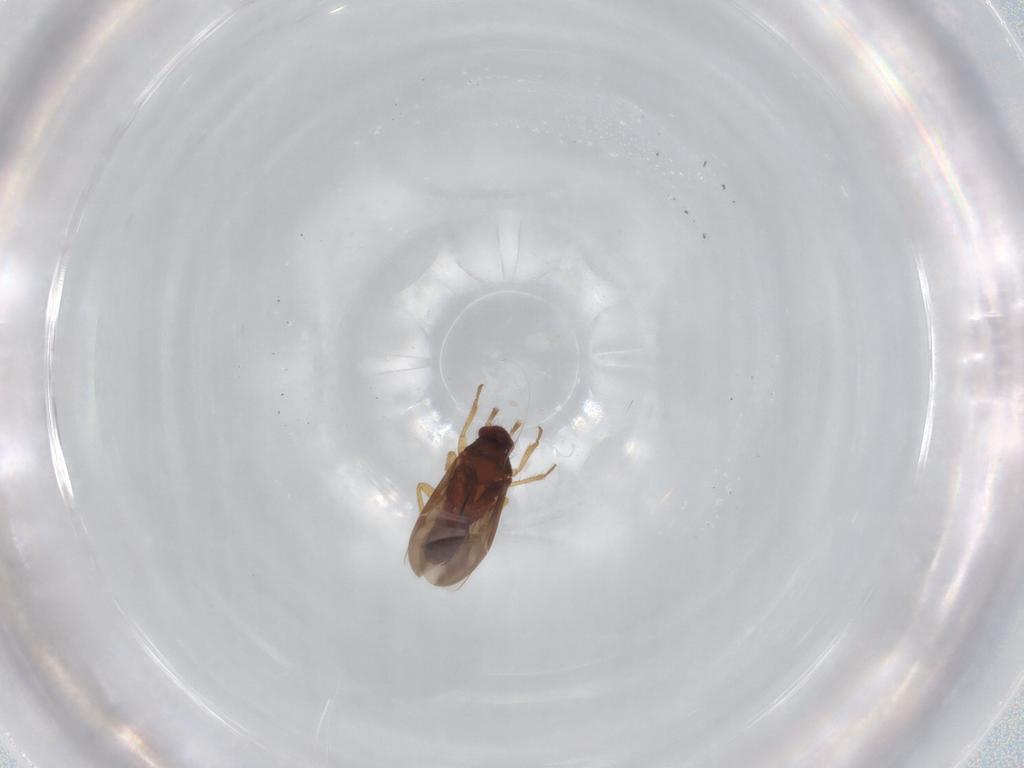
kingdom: Animalia
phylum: Arthropoda
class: Insecta
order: Hemiptera
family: Ceratocombidae
